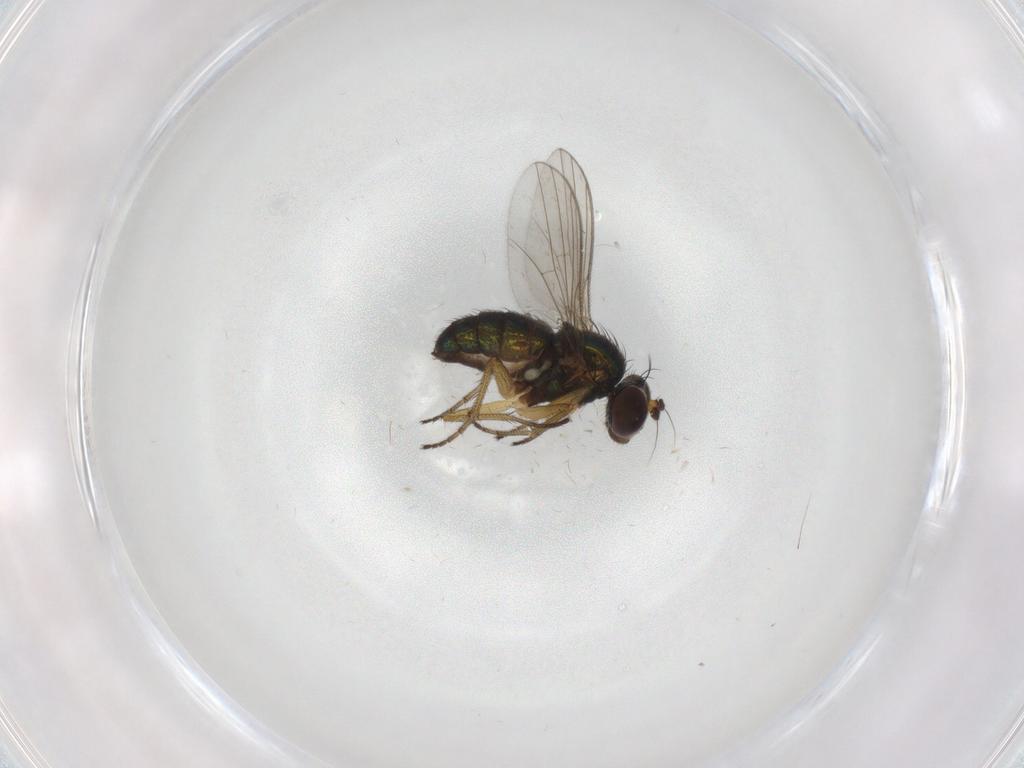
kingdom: Animalia
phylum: Arthropoda
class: Insecta
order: Diptera
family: Dolichopodidae
